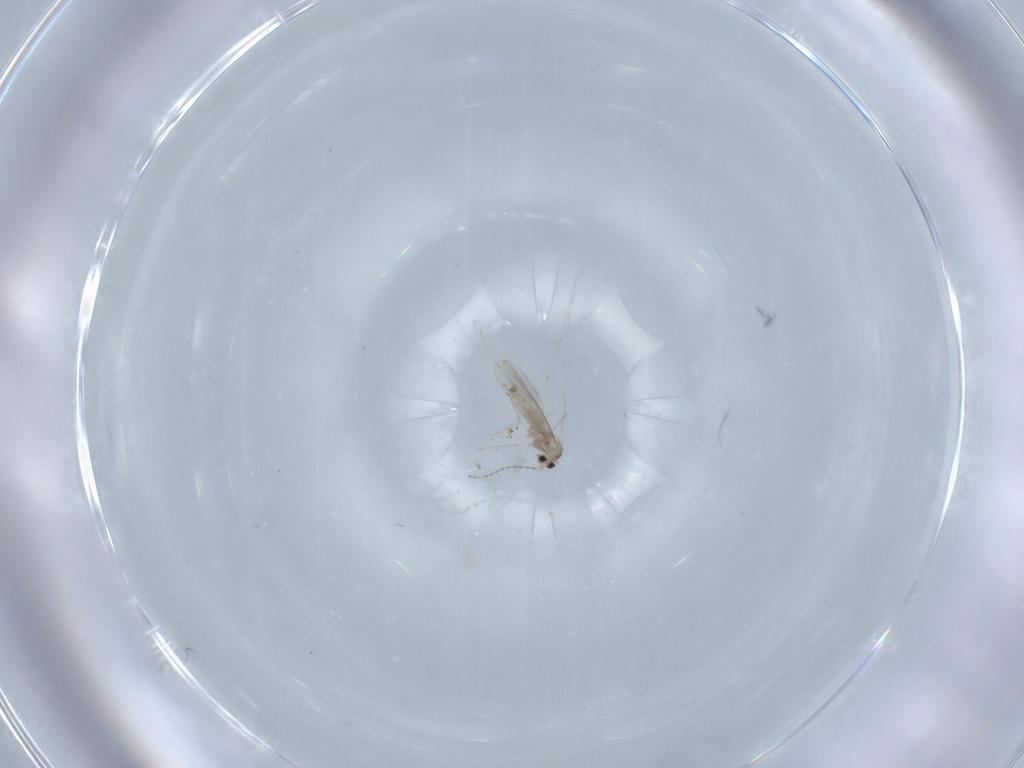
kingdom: Animalia
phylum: Arthropoda
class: Insecta
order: Diptera
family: Cecidomyiidae
